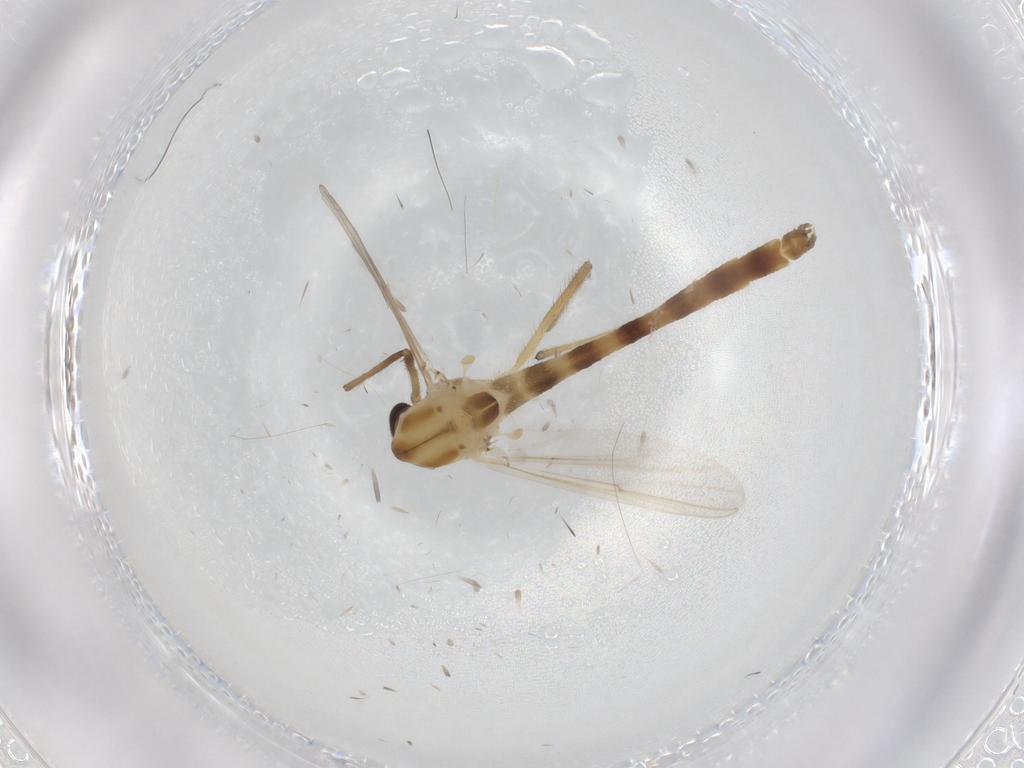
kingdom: Animalia
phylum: Arthropoda
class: Insecta
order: Diptera
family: Chironomidae
